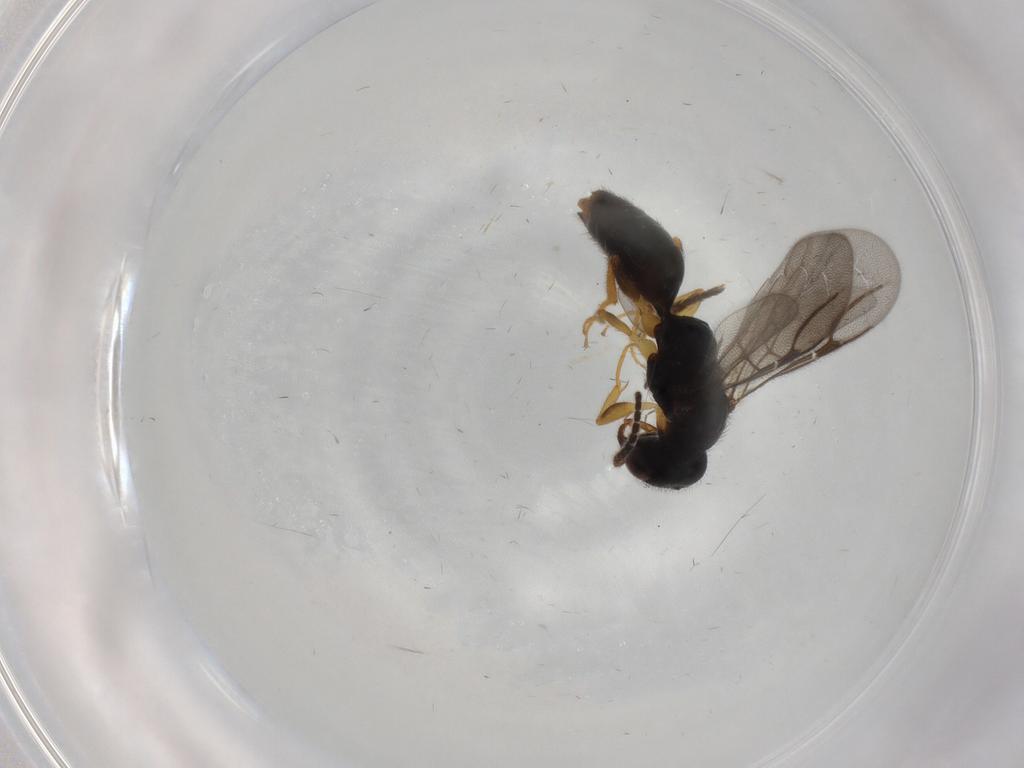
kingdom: Animalia
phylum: Arthropoda
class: Insecta
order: Hymenoptera
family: Bethylidae
